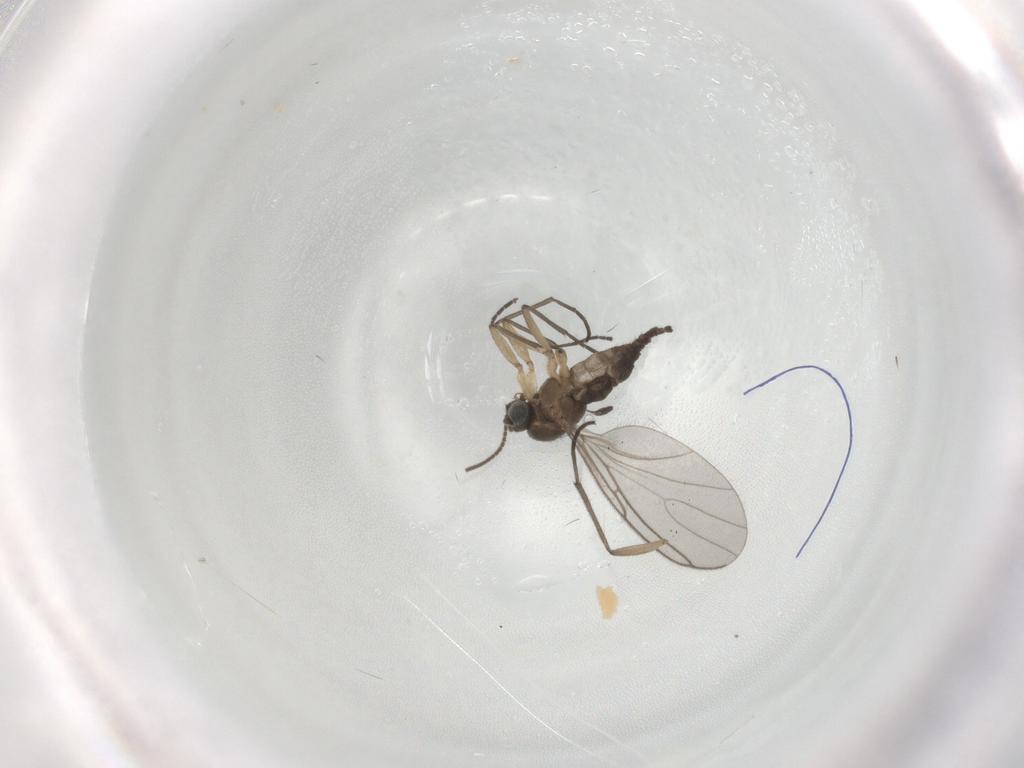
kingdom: Animalia
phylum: Arthropoda
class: Insecta
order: Diptera
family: Sciaridae
